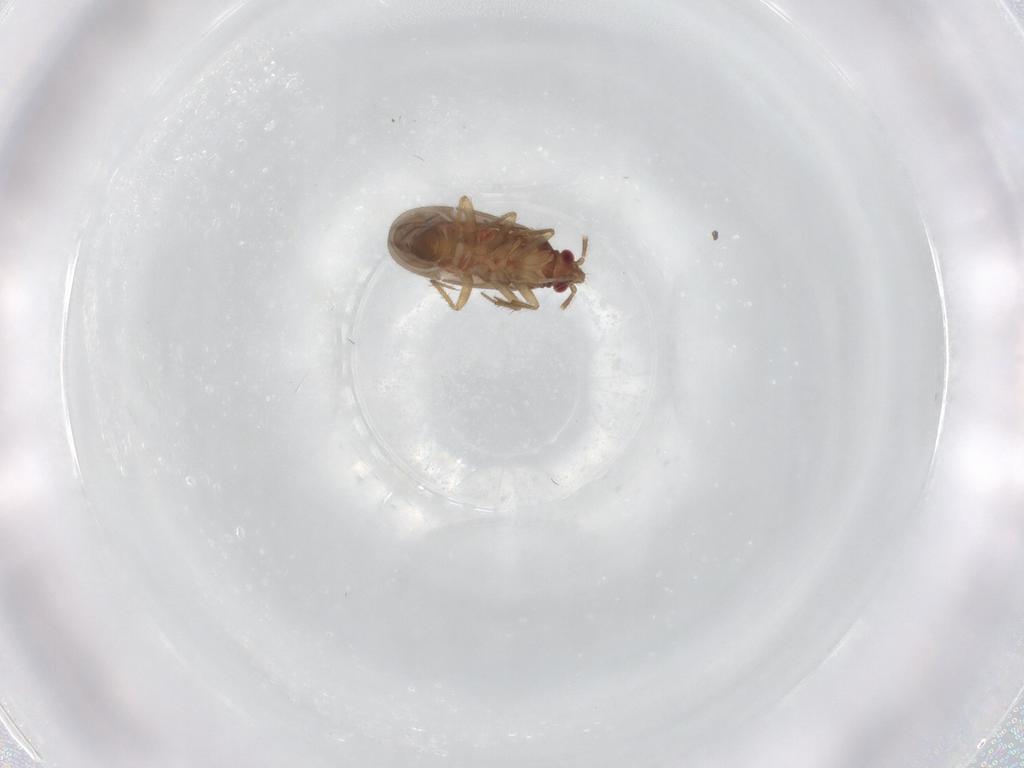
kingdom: Animalia
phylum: Arthropoda
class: Insecta
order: Hemiptera
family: Ceratocombidae
